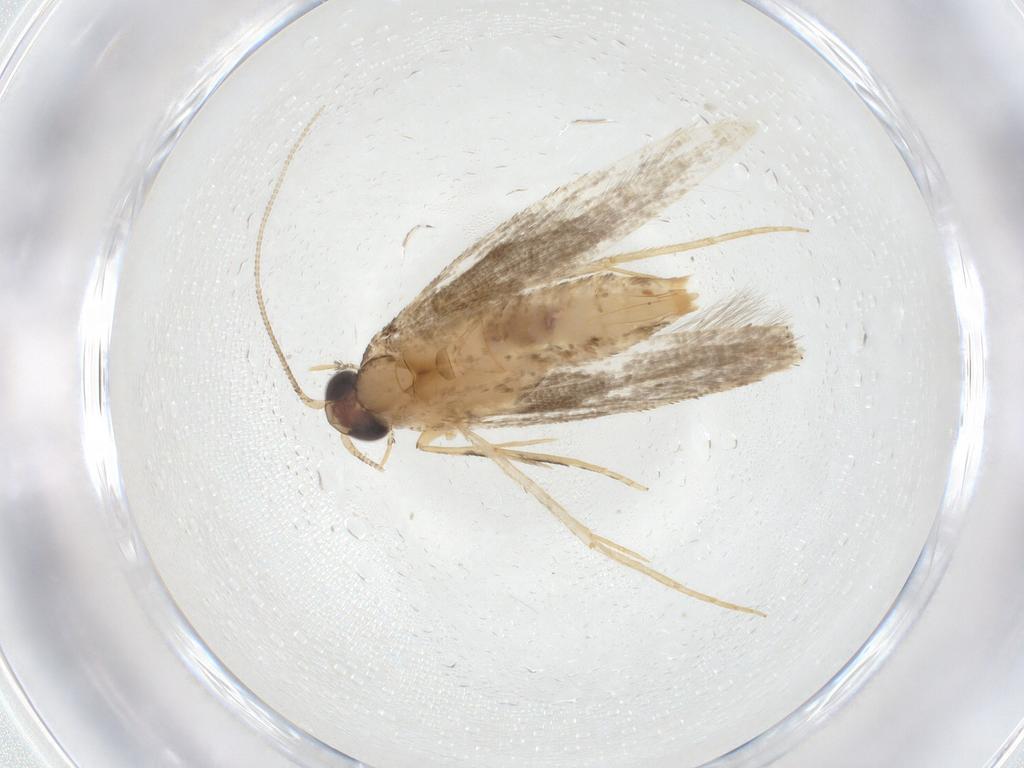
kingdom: Animalia
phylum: Arthropoda
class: Insecta
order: Lepidoptera
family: Tineidae
